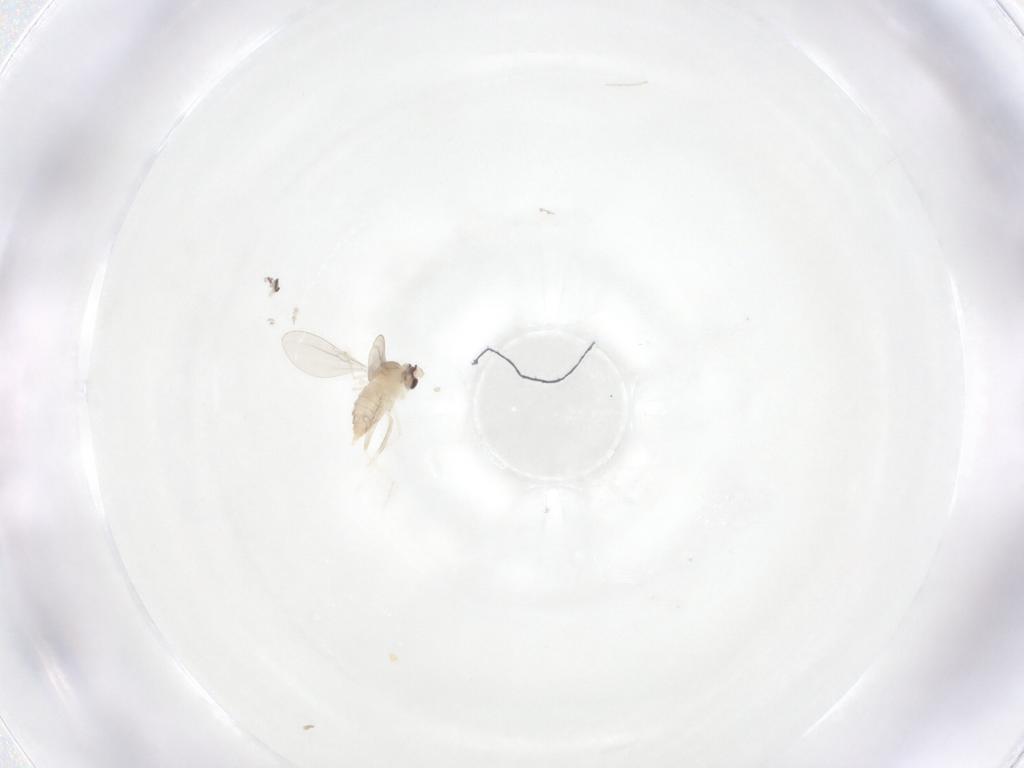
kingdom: Animalia
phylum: Arthropoda
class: Insecta
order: Diptera
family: Cecidomyiidae
